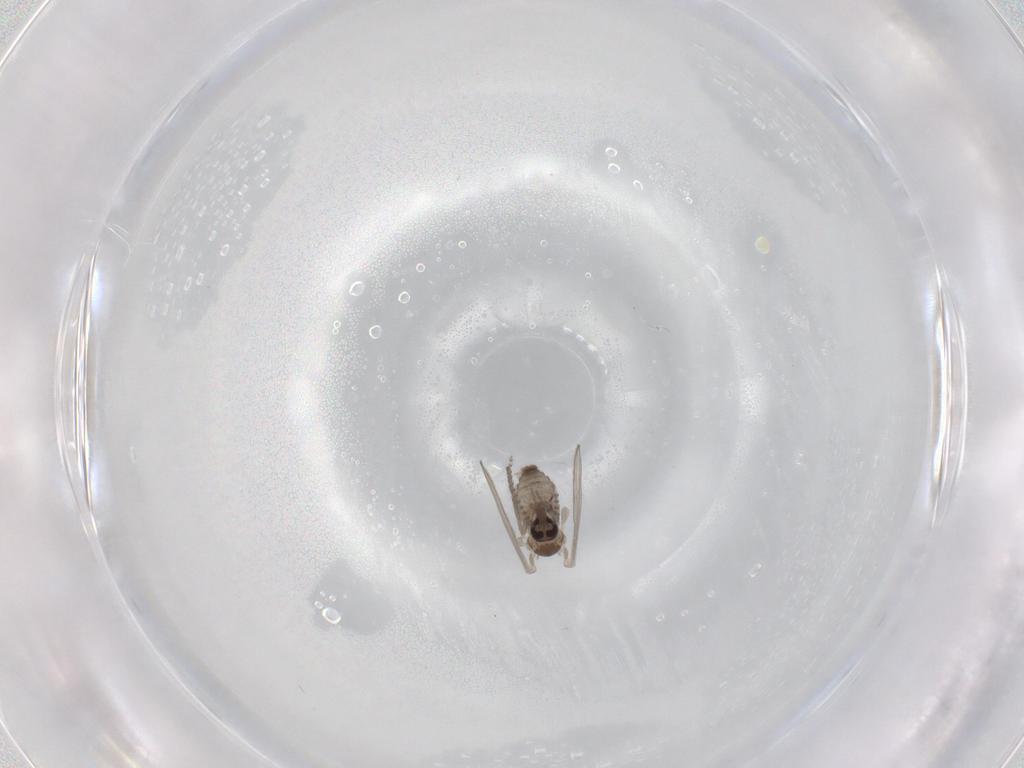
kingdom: Animalia
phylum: Arthropoda
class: Insecta
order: Diptera
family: Psychodidae
